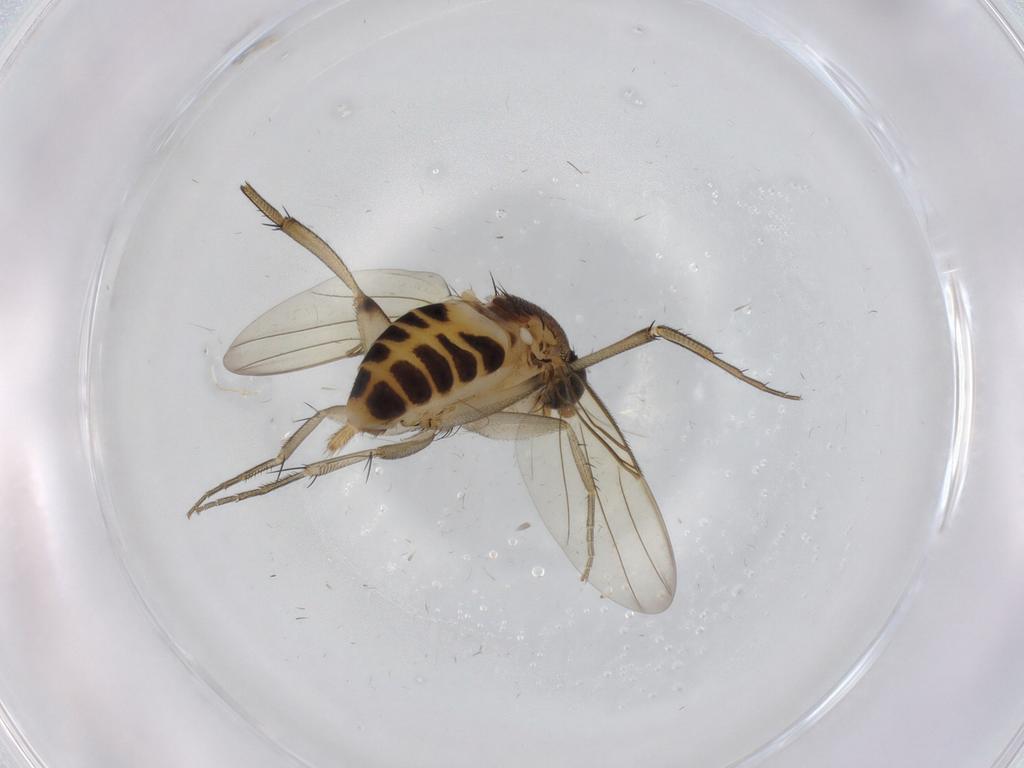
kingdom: Animalia
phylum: Arthropoda
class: Insecta
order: Diptera
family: Phoridae
